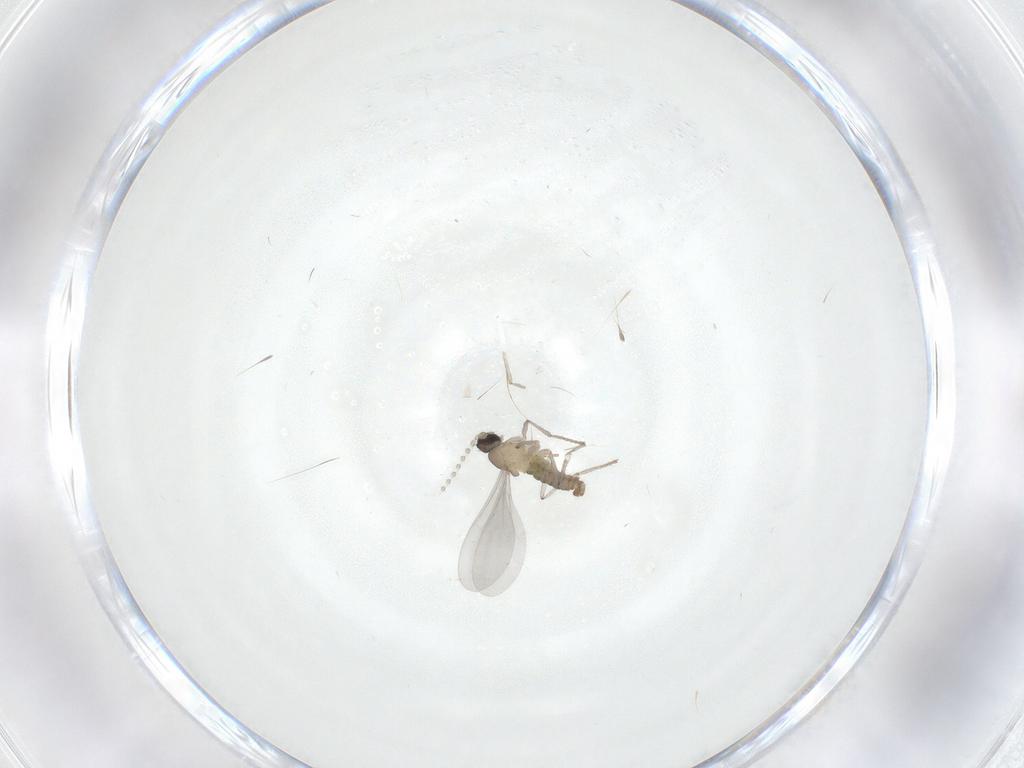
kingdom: Animalia
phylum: Arthropoda
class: Insecta
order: Diptera
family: Cecidomyiidae
